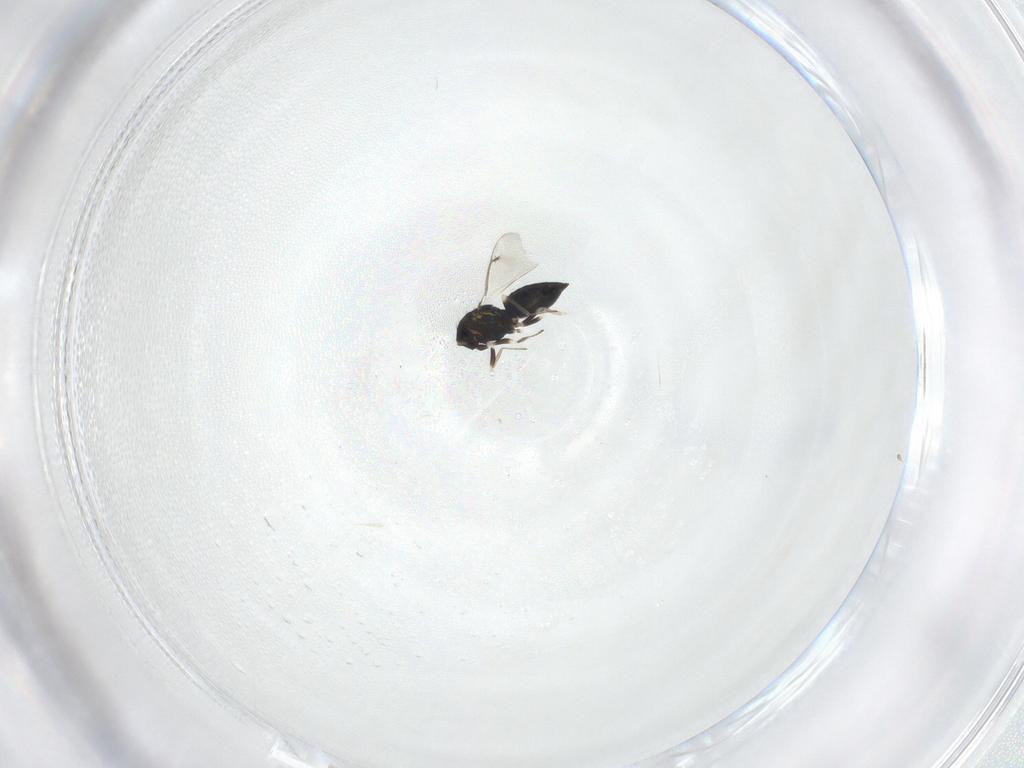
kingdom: Animalia
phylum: Arthropoda
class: Insecta
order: Hymenoptera
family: Eulophidae
